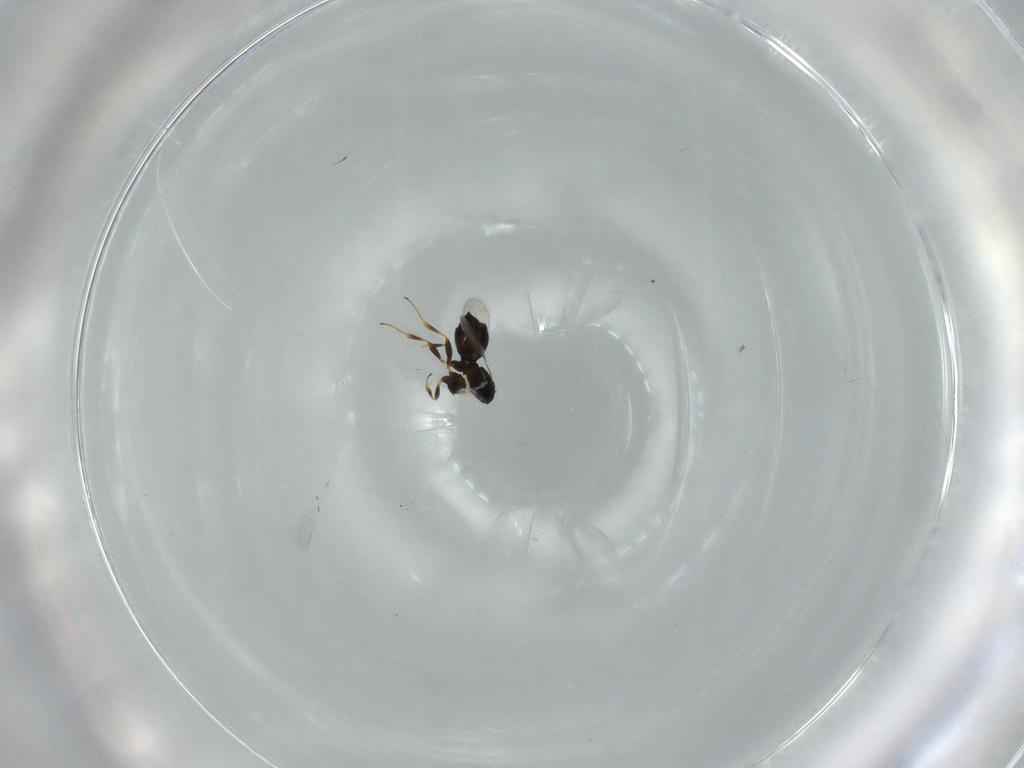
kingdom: Animalia
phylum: Arthropoda
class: Insecta
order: Hymenoptera
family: Scelionidae
